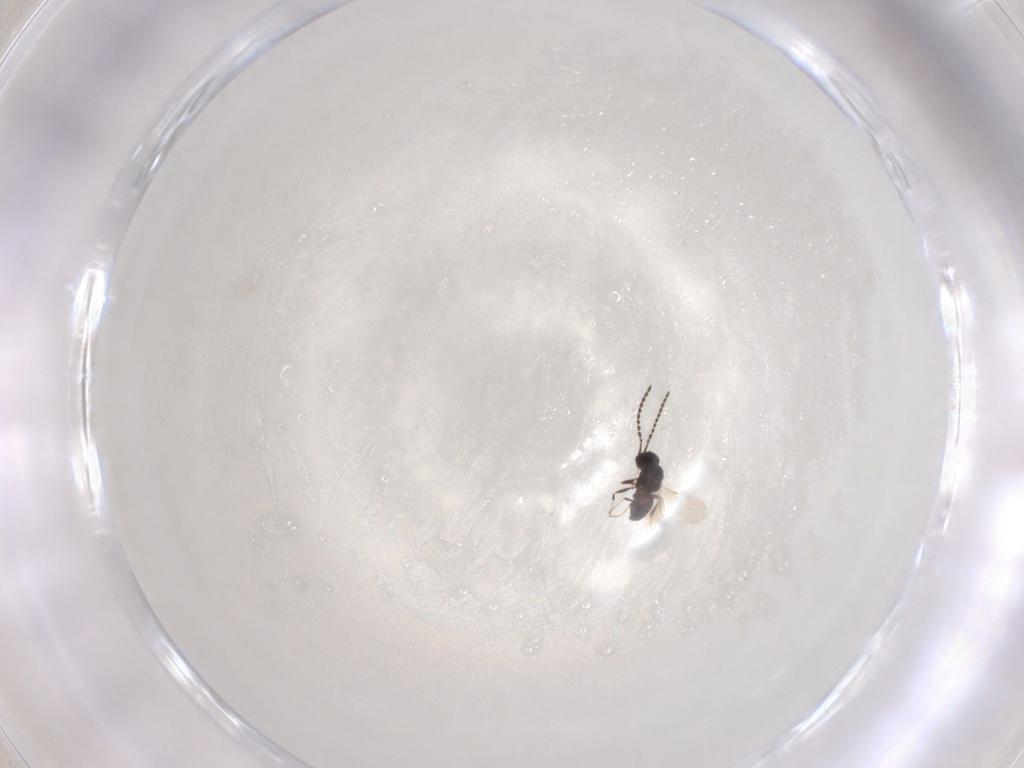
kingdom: Animalia
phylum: Arthropoda
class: Insecta
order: Hymenoptera
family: Ceraphronidae
